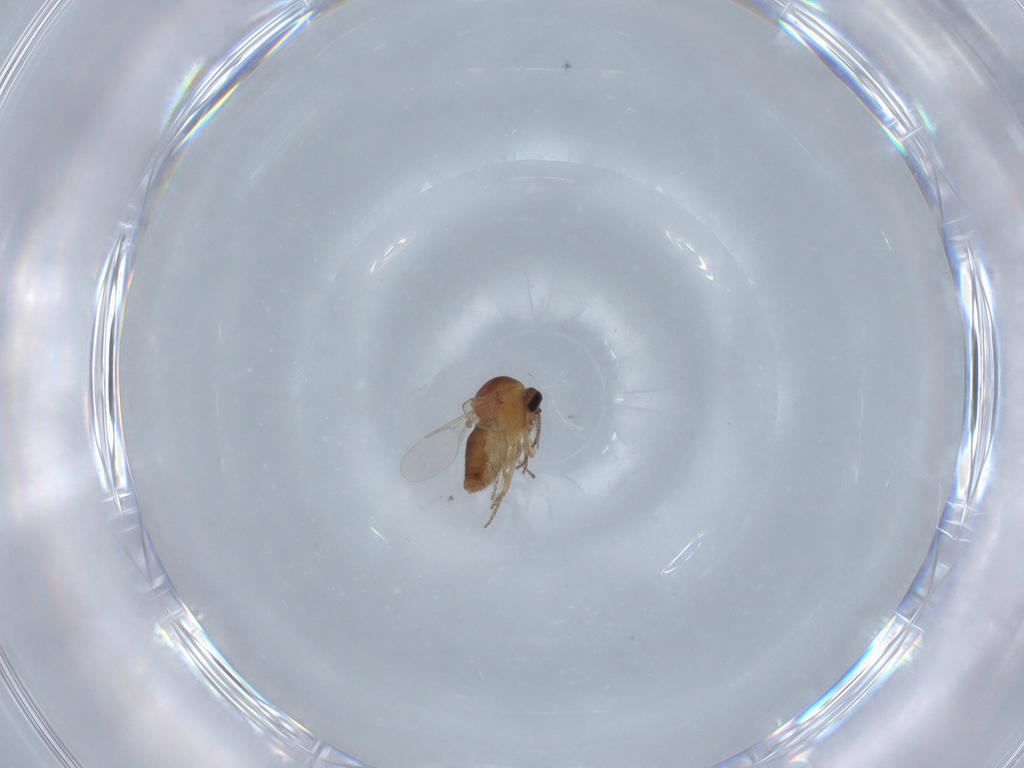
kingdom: Animalia
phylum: Arthropoda
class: Insecta
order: Diptera
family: Ceratopogonidae
